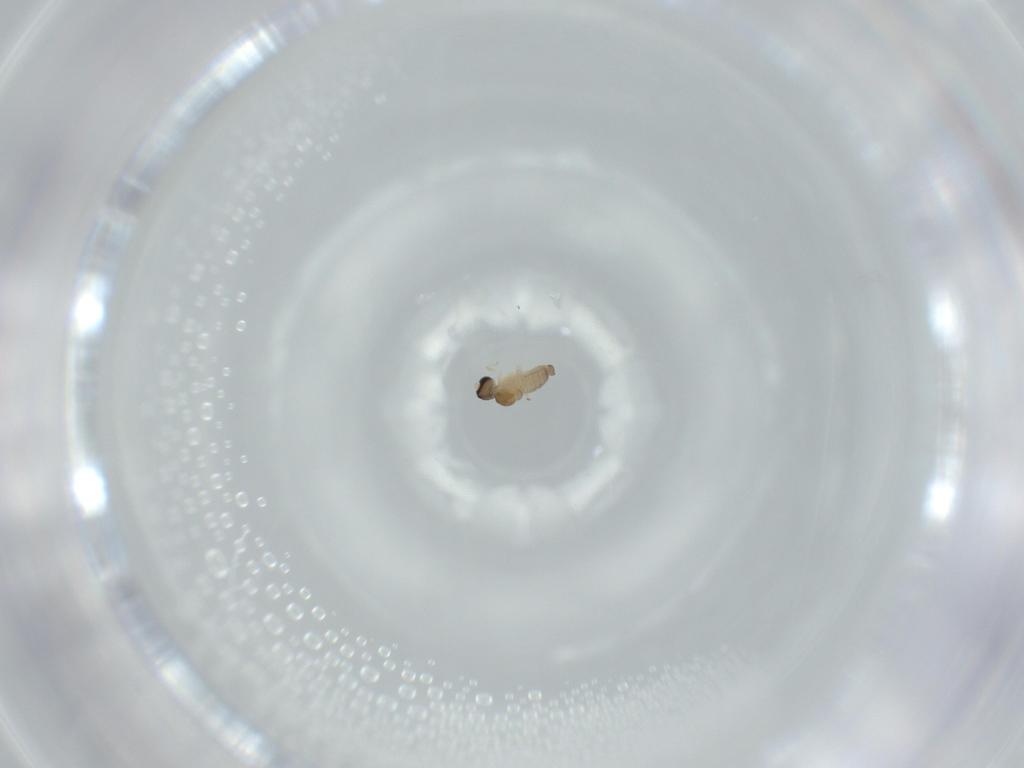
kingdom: Animalia
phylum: Arthropoda
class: Insecta
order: Diptera
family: Cecidomyiidae
